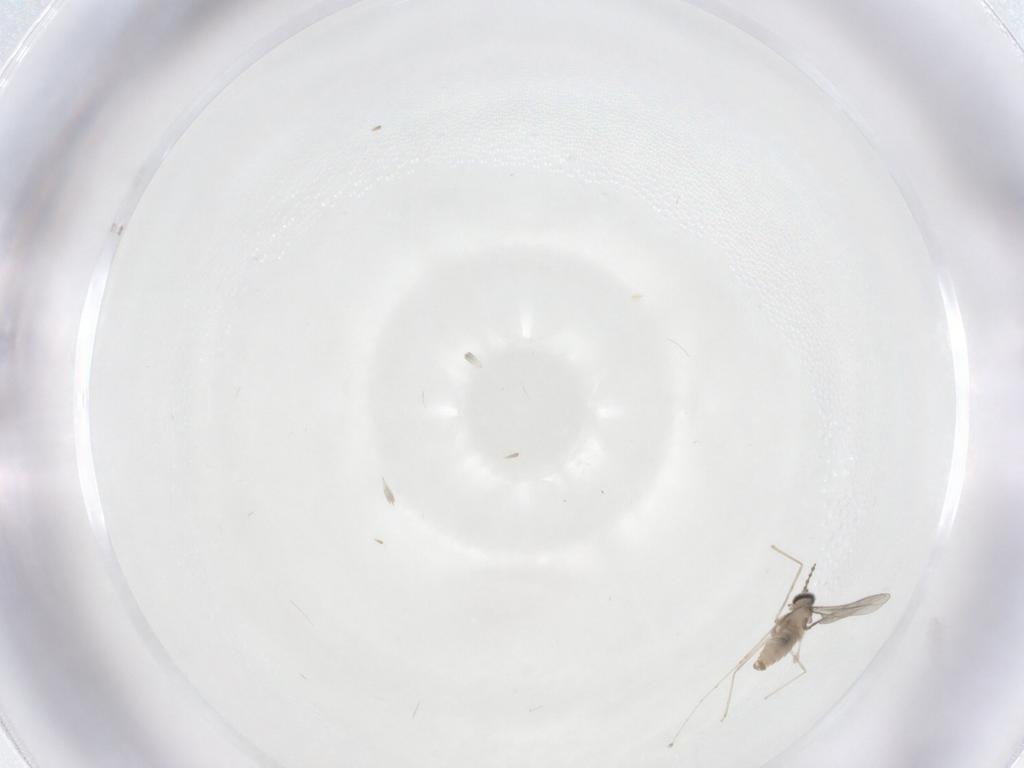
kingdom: Animalia
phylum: Arthropoda
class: Insecta
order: Diptera
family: Cecidomyiidae
